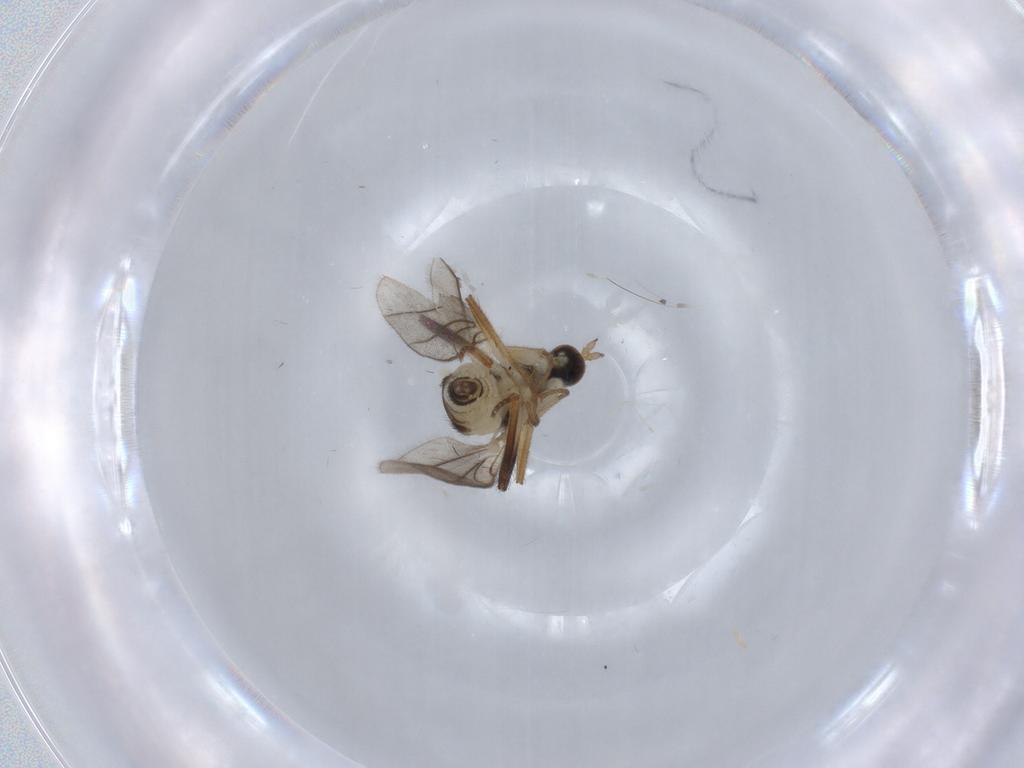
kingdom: Animalia
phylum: Arthropoda
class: Insecta
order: Diptera
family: Hybotidae
